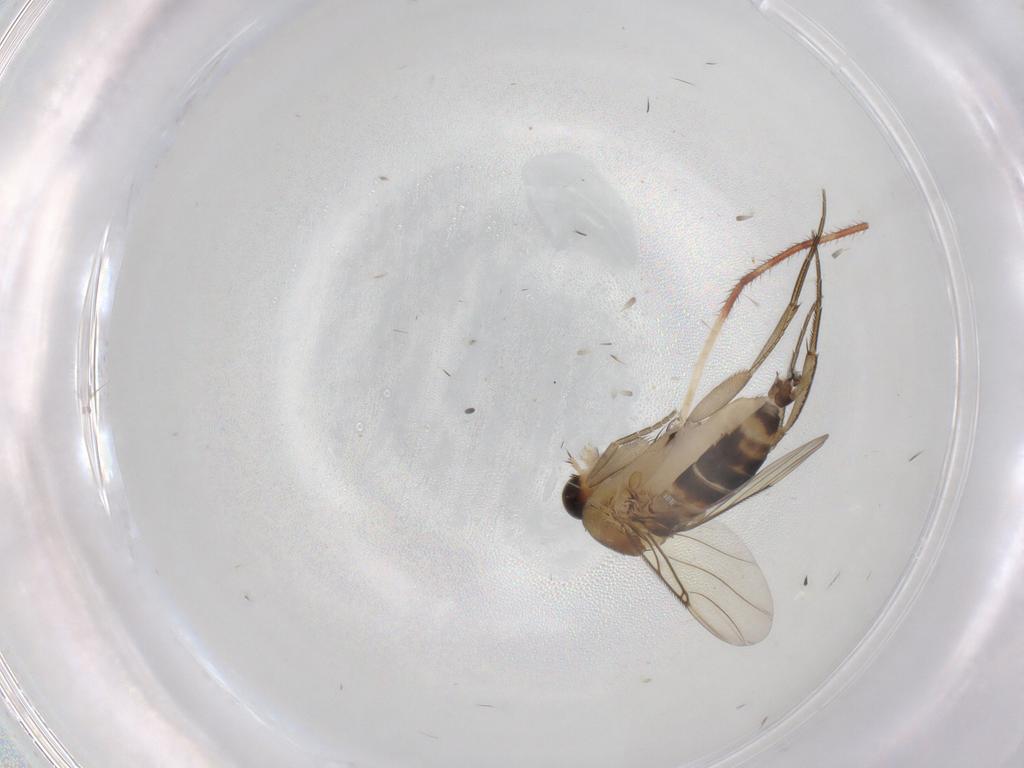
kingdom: Animalia
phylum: Arthropoda
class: Insecta
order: Diptera
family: Ceratopogonidae
